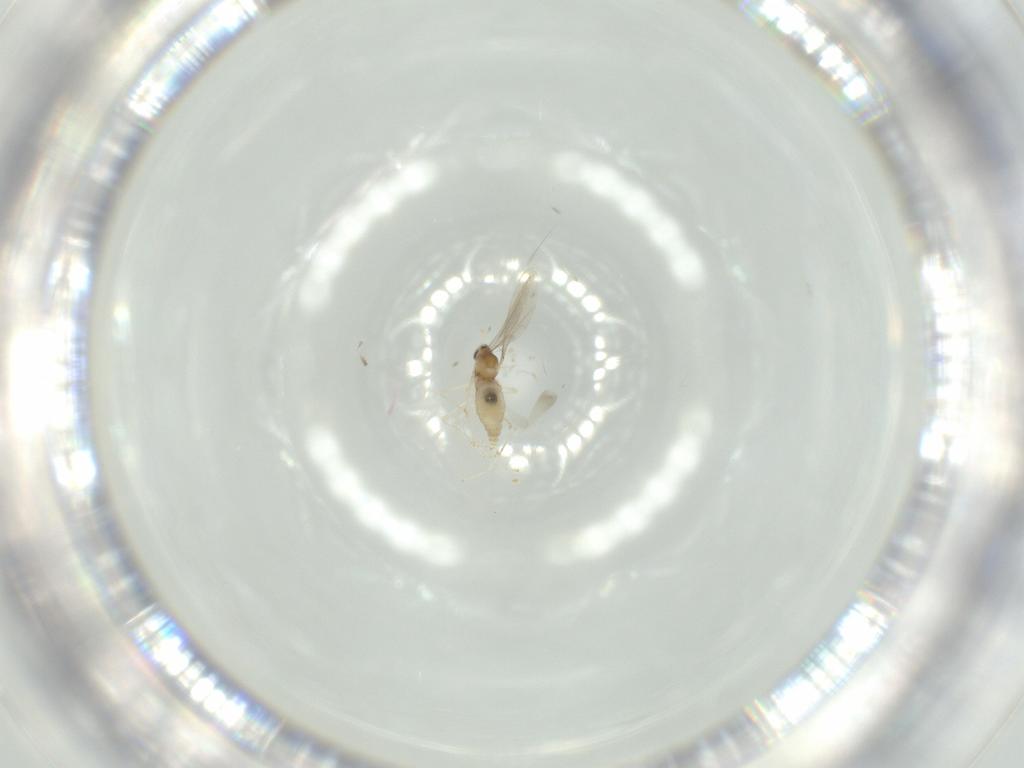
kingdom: Animalia
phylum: Arthropoda
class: Insecta
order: Diptera
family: Cecidomyiidae
